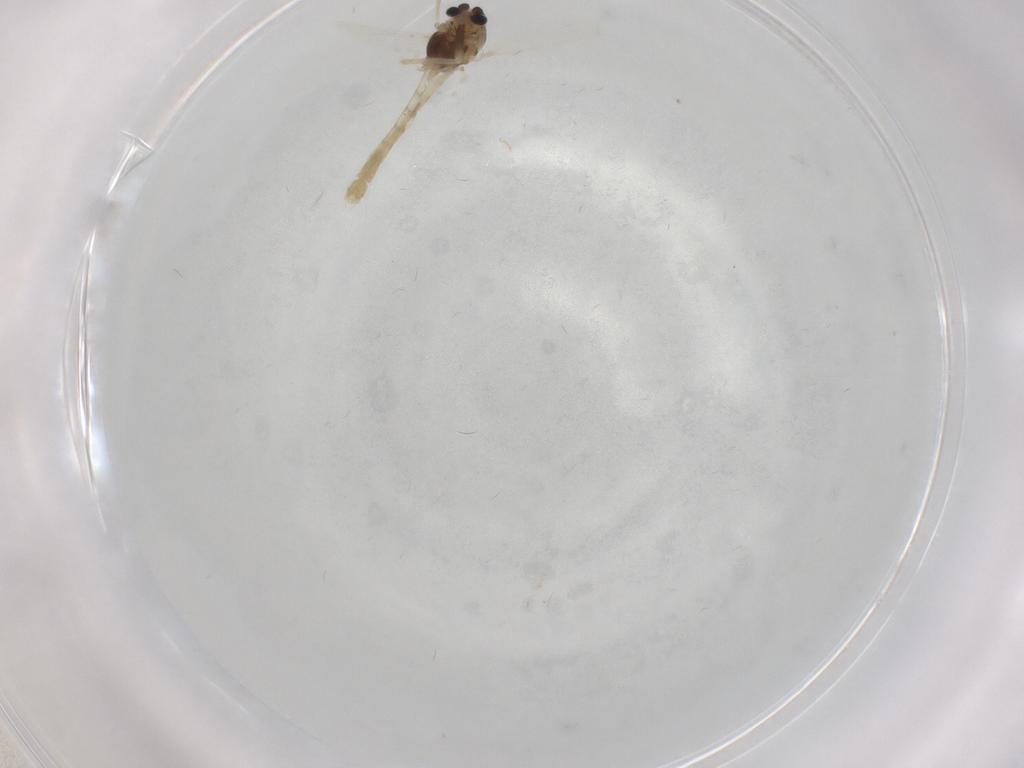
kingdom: Animalia
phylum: Arthropoda
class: Insecta
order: Diptera
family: Chironomidae
